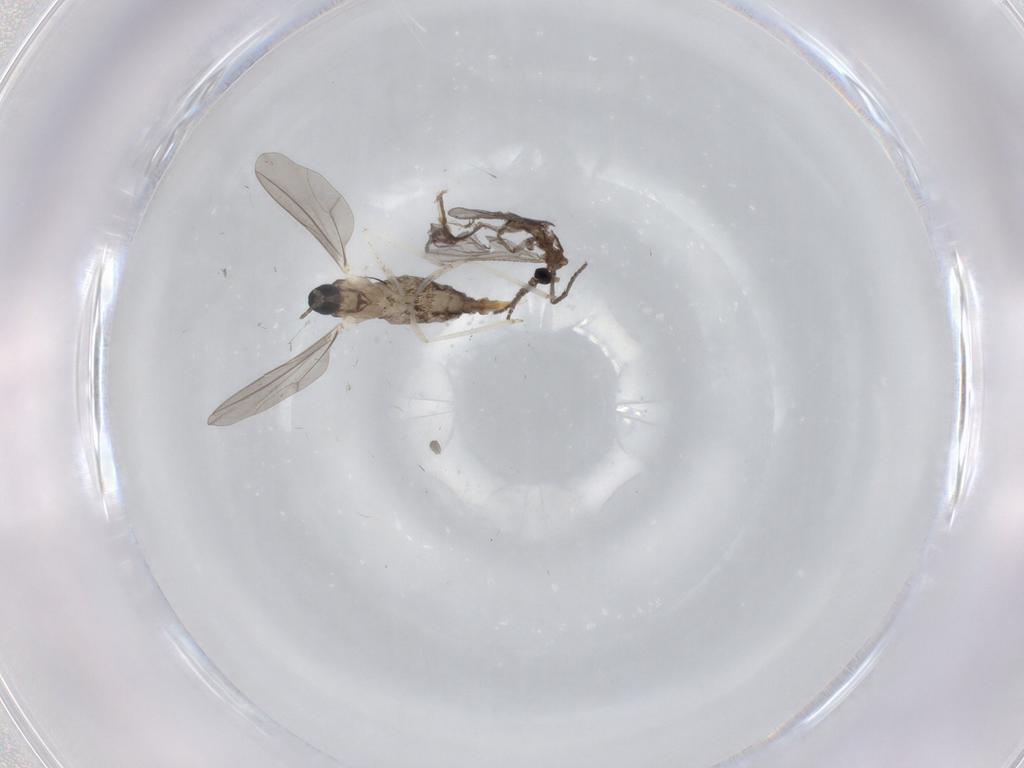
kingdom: Animalia
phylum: Arthropoda
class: Insecta
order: Diptera
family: Sciaridae
